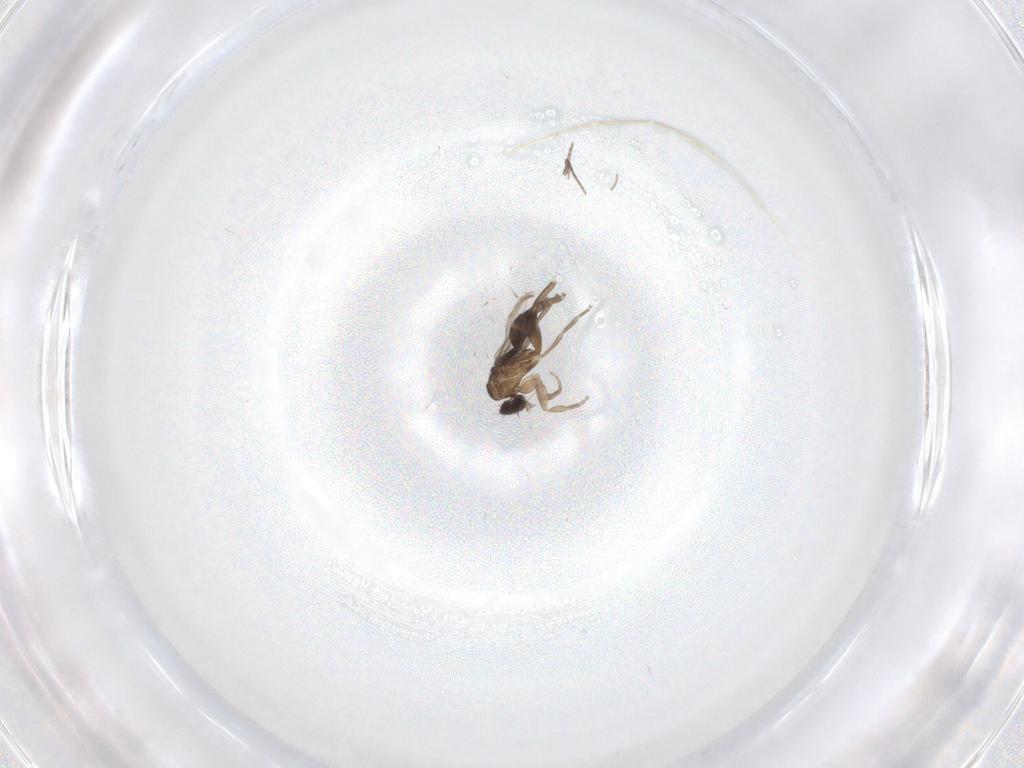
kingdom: Animalia
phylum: Arthropoda
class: Insecta
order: Diptera
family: Phoridae
